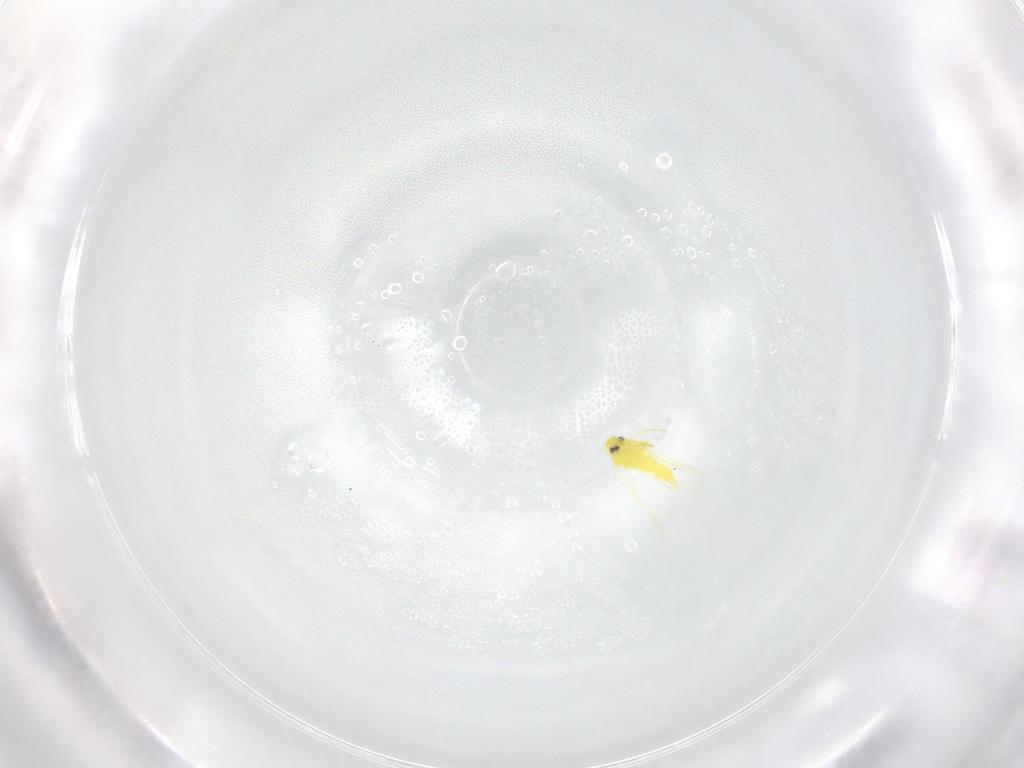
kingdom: Animalia
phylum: Arthropoda
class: Insecta
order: Hemiptera
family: Aleyrodidae
